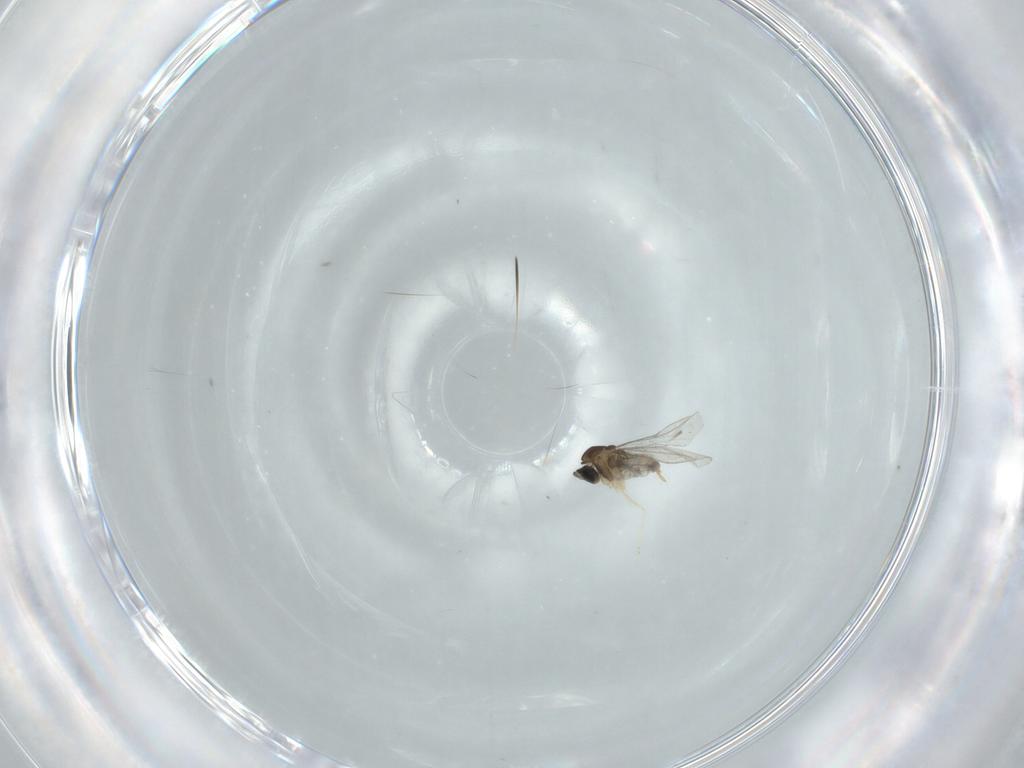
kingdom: Animalia
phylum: Arthropoda
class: Insecta
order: Diptera
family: Cecidomyiidae
